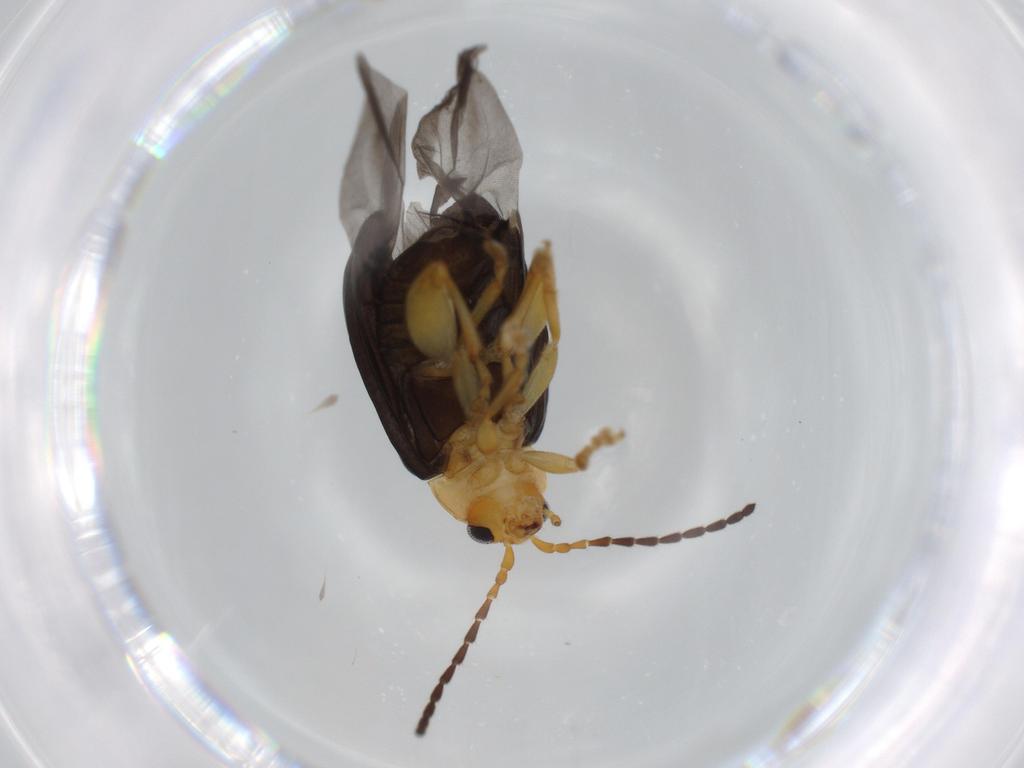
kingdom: Animalia
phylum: Arthropoda
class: Insecta
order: Coleoptera
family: Chrysomelidae
